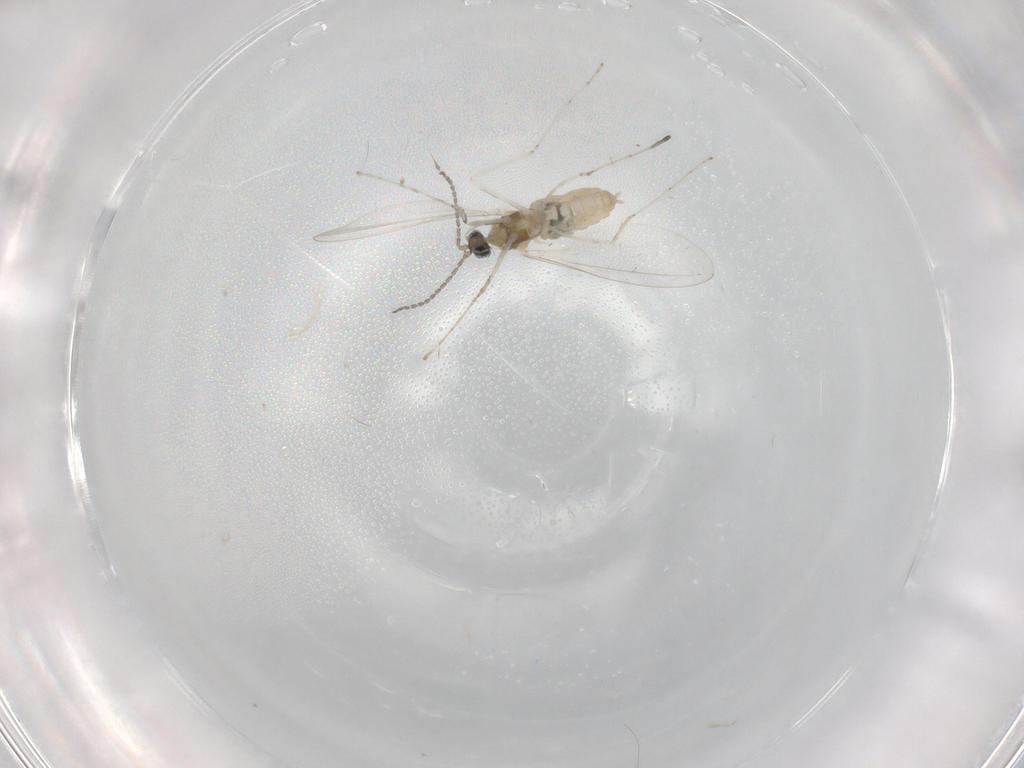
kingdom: Animalia
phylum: Arthropoda
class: Insecta
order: Diptera
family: Cecidomyiidae
